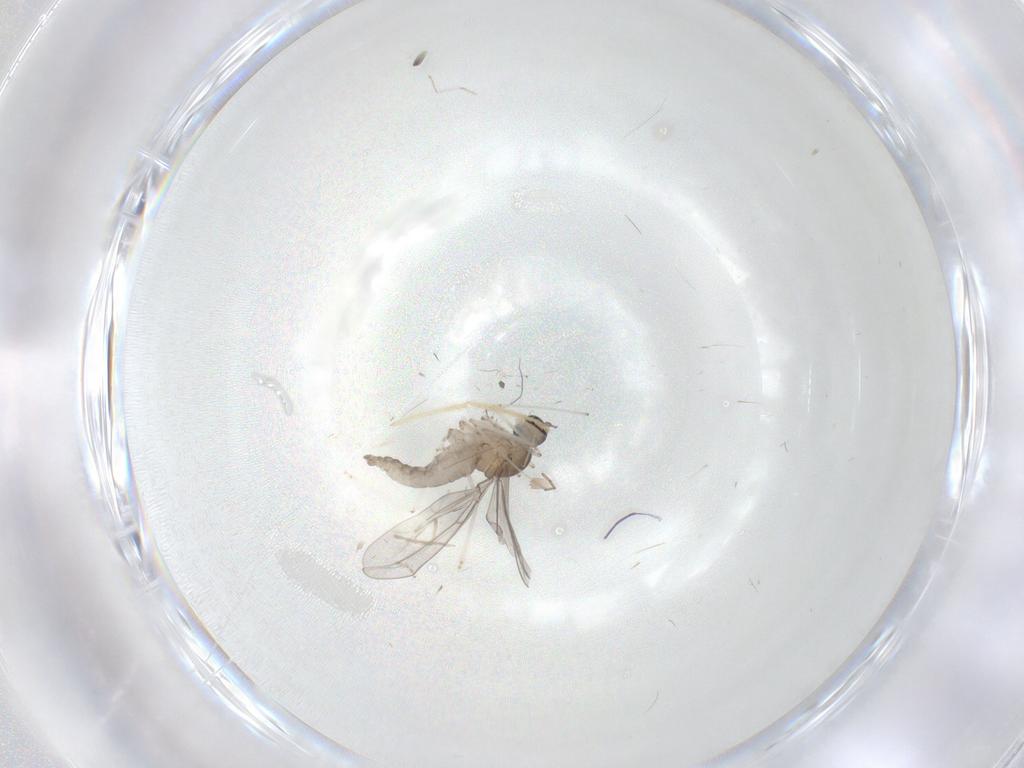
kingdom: Animalia
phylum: Arthropoda
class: Insecta
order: Diptera
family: Cecidomyiidae
